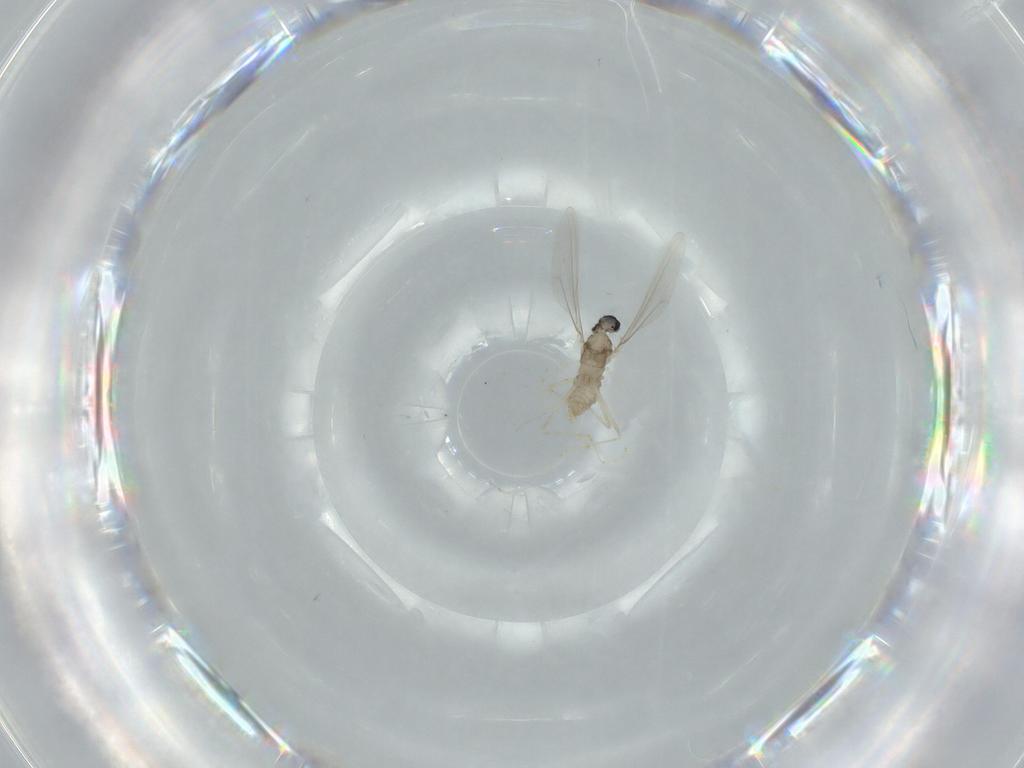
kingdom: Animalia
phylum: Arthropoda
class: Insecta
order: Diptera
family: Cecidomyiidae
